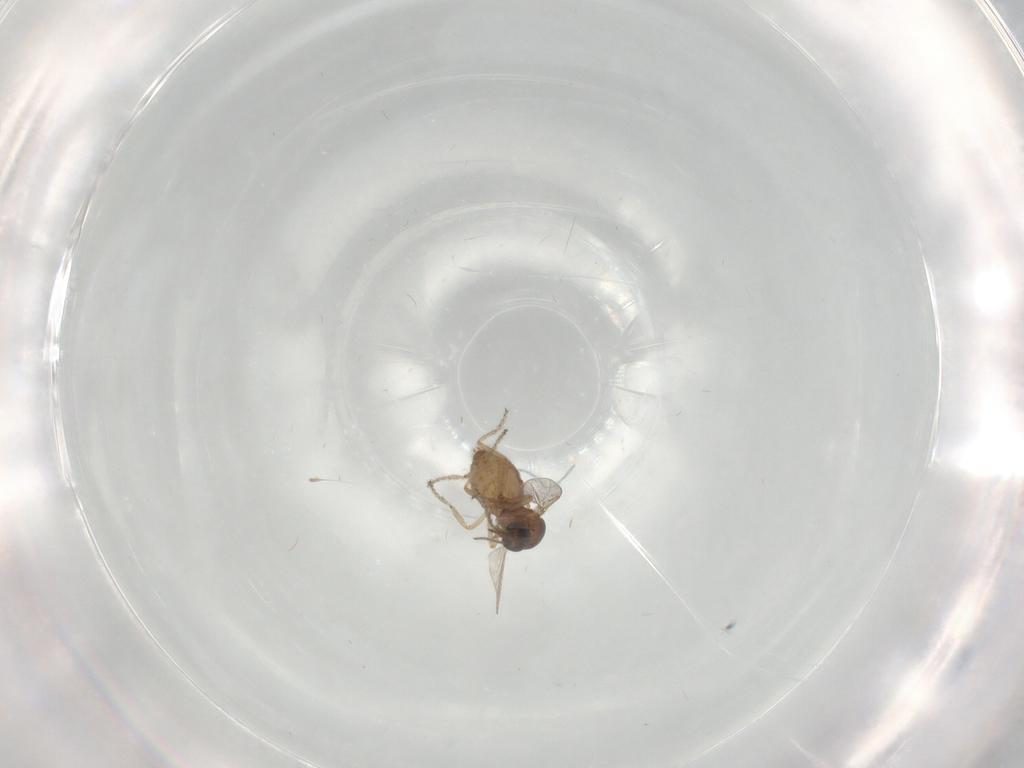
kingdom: Animalia
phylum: Arthropoda
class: Insecta
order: Diptera
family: Ceratopogonidae
